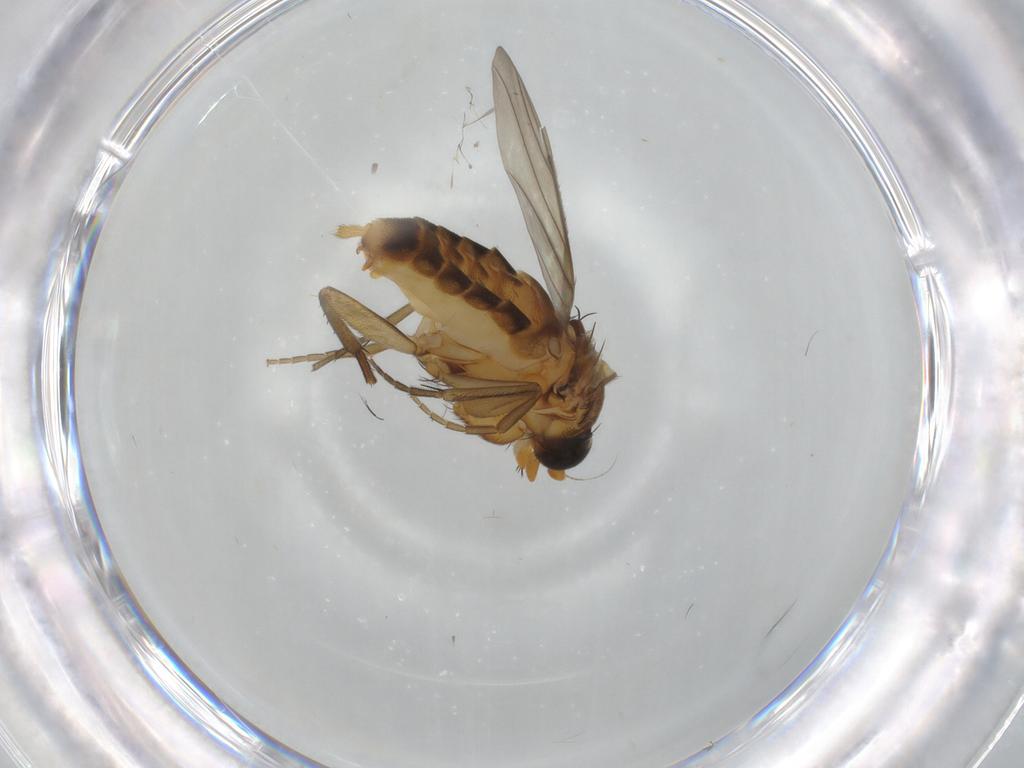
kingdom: Animalia
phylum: Arthropoda
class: Insecta
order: Diptera
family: Phoridae
